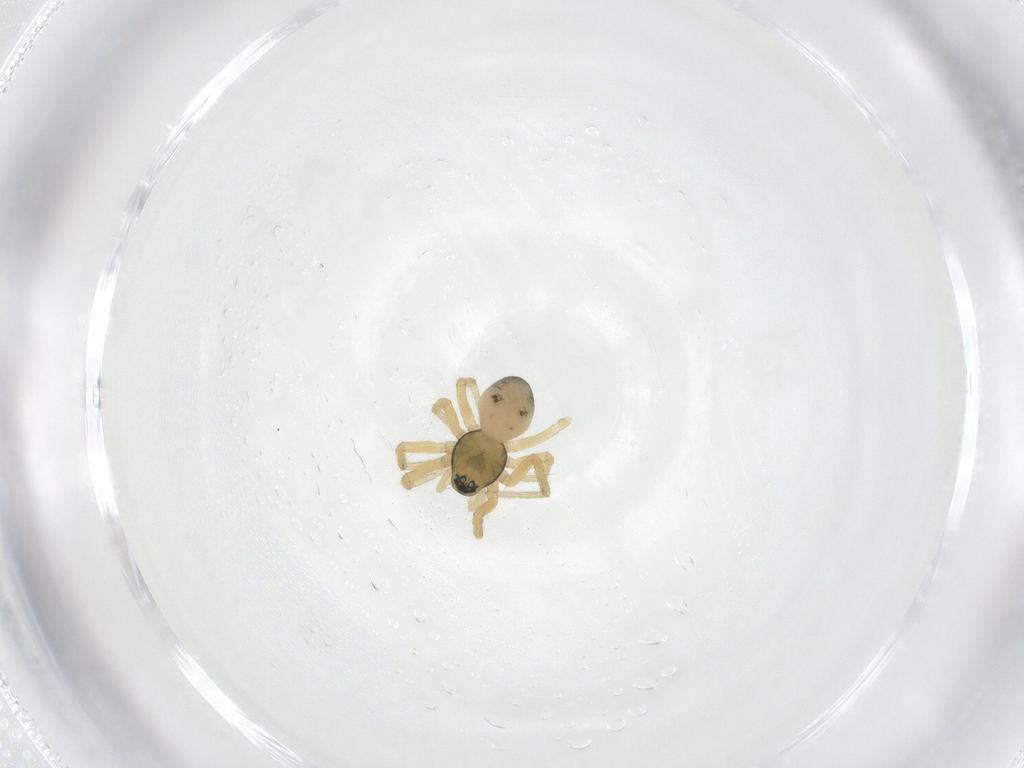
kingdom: Animalia
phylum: Arthropoda
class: Arachnida
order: Araneae
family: Linyphiidae
